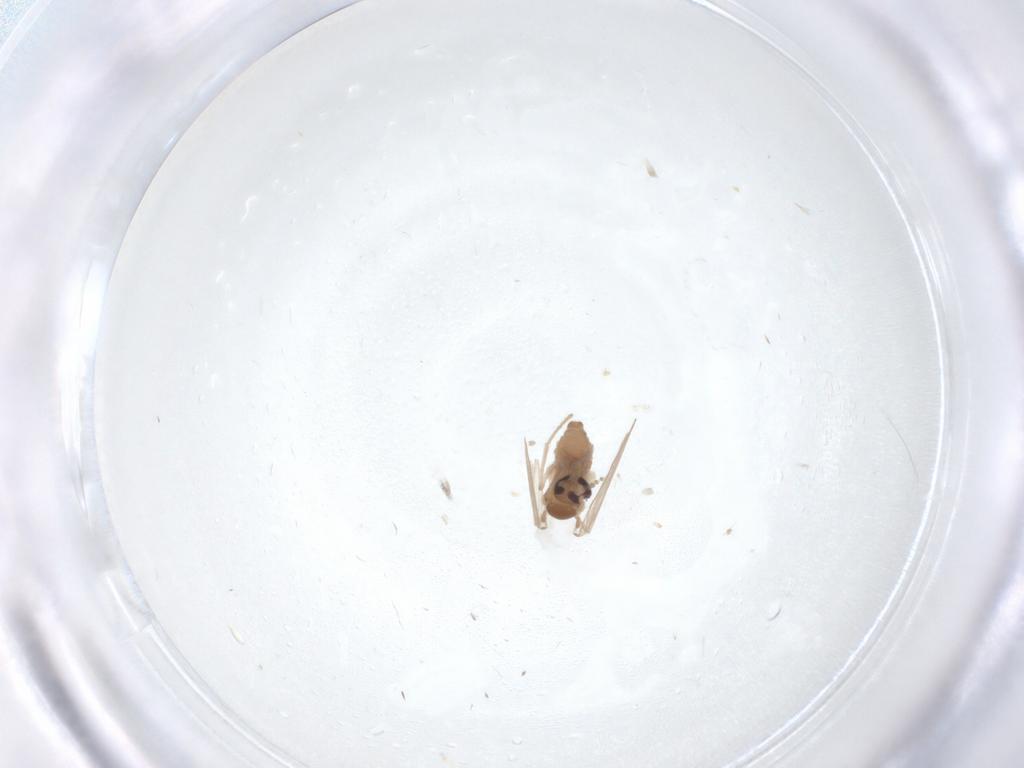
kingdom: Animalia
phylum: Arthropoda
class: Insecta
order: Diptera
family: Psychodidae
